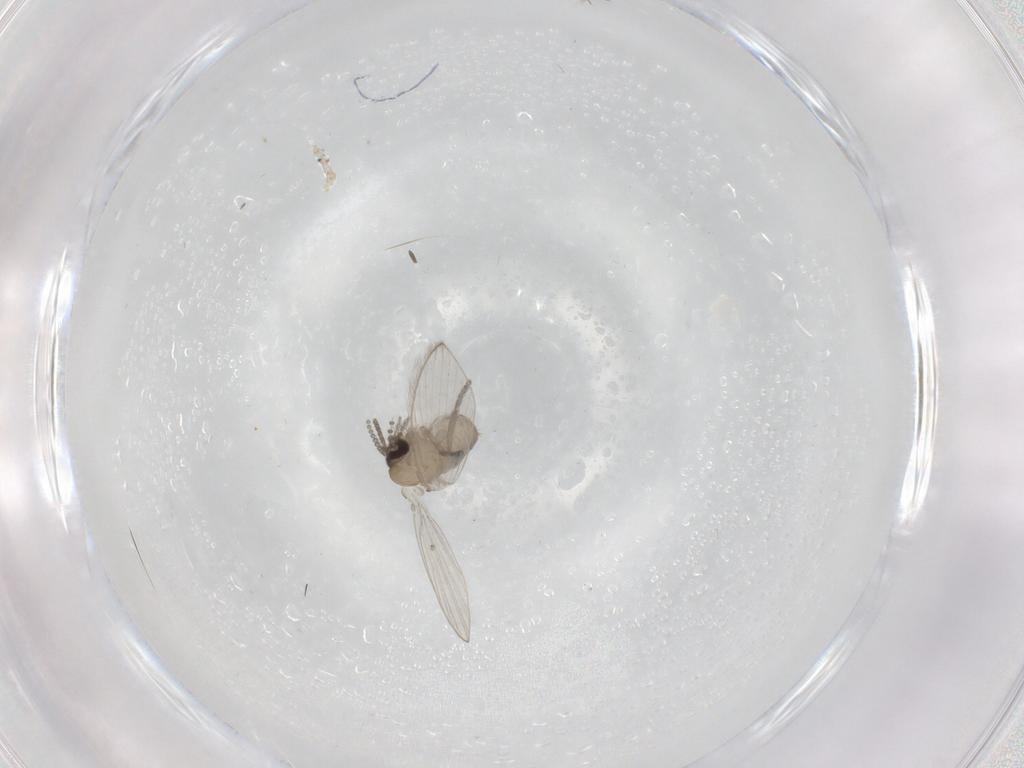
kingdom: Animalia
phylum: Arthropoda
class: Insecta
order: Diptera
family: Psychodidae
